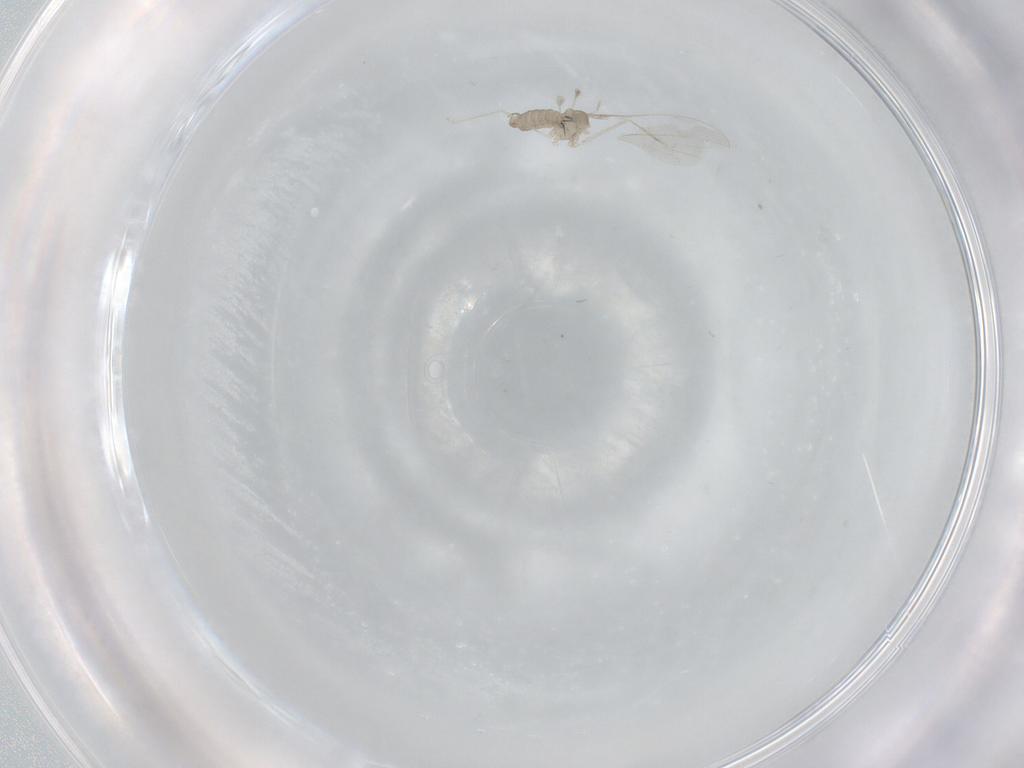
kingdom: Animalia
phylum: Arthropoda
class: Insecta
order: Diptera
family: Cecidomyiidae
